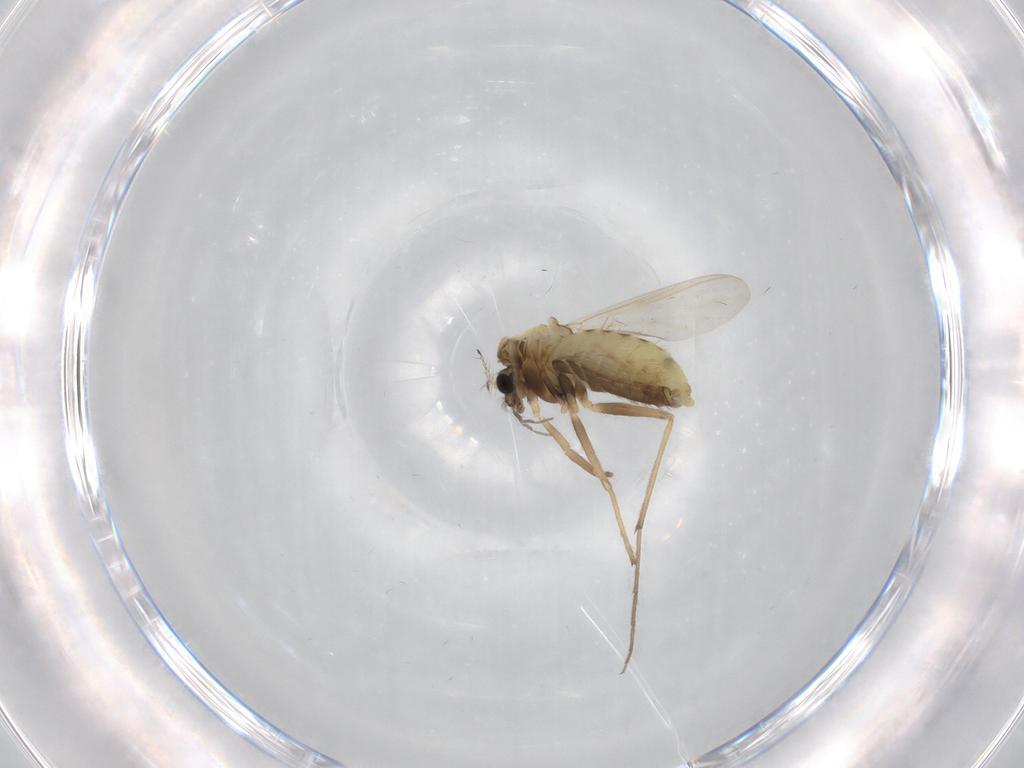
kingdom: Animalia
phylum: Arthropoda
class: Insecta
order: Diptera
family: Chironomidae
